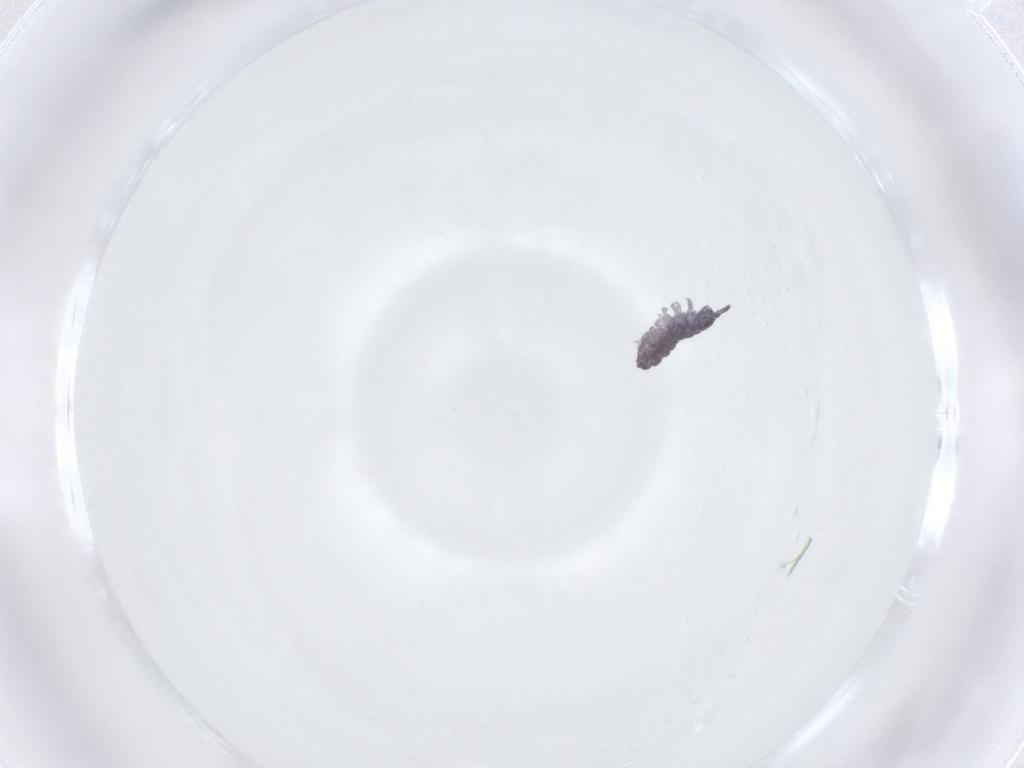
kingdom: Animalia
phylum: Arthropoda
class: Collembola
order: Poduromorpha
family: Brachystomellidae
